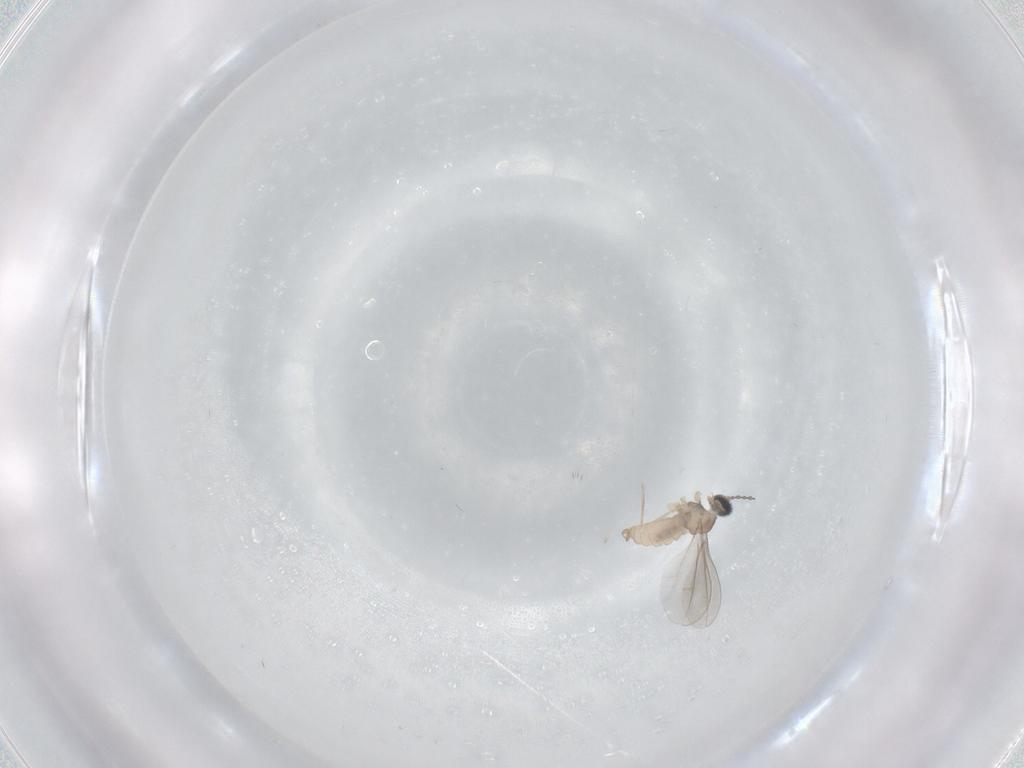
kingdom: Animalia
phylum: Arthropoda
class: Insecta
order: Diptera
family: Cecidomyiidae
